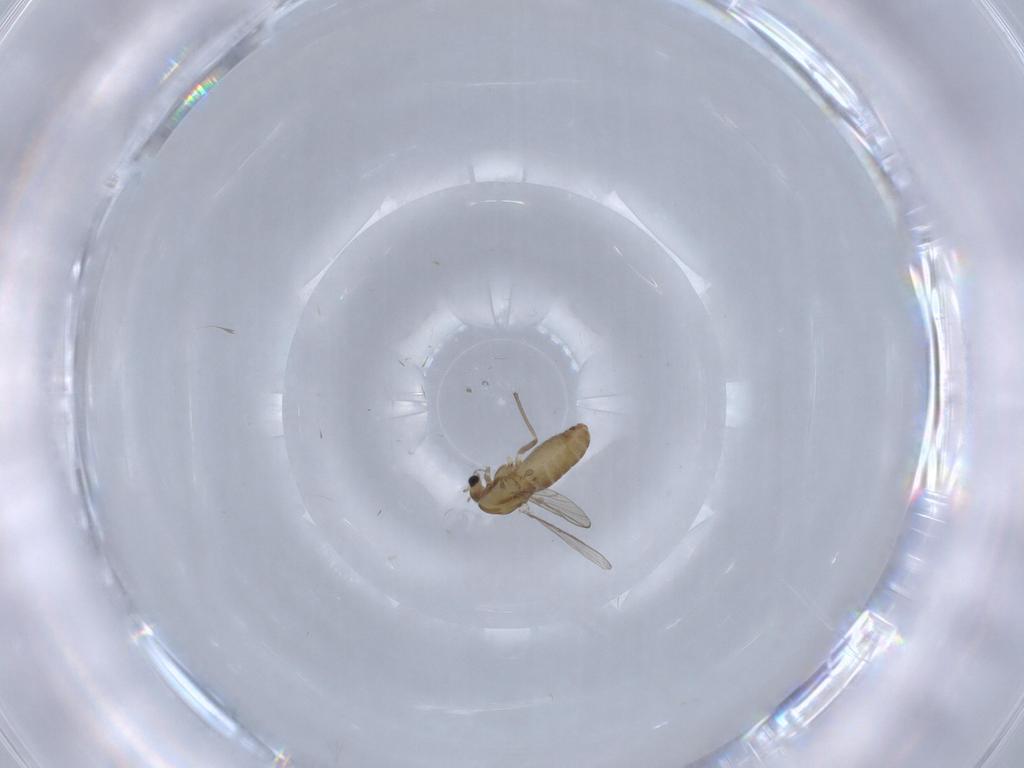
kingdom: Animalia
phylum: Arthropoda
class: Insecta
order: Diptera
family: Chironomidae
